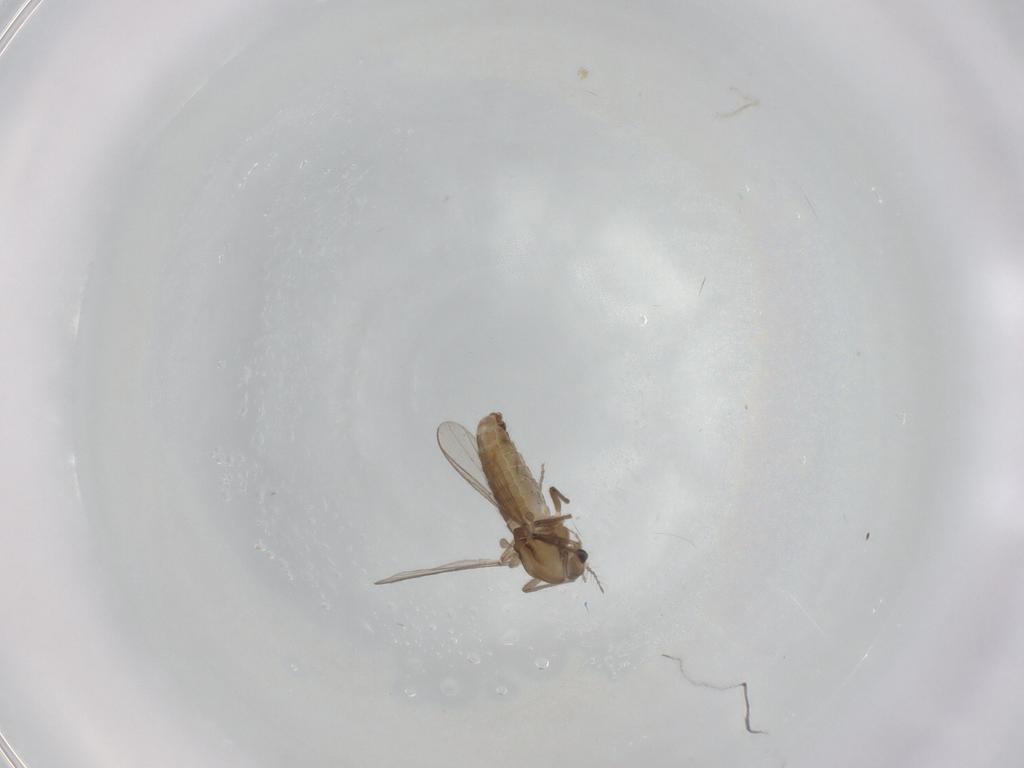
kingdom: Animalia
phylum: Arthropoda
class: Insecta
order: Diptera
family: Chironomidae
